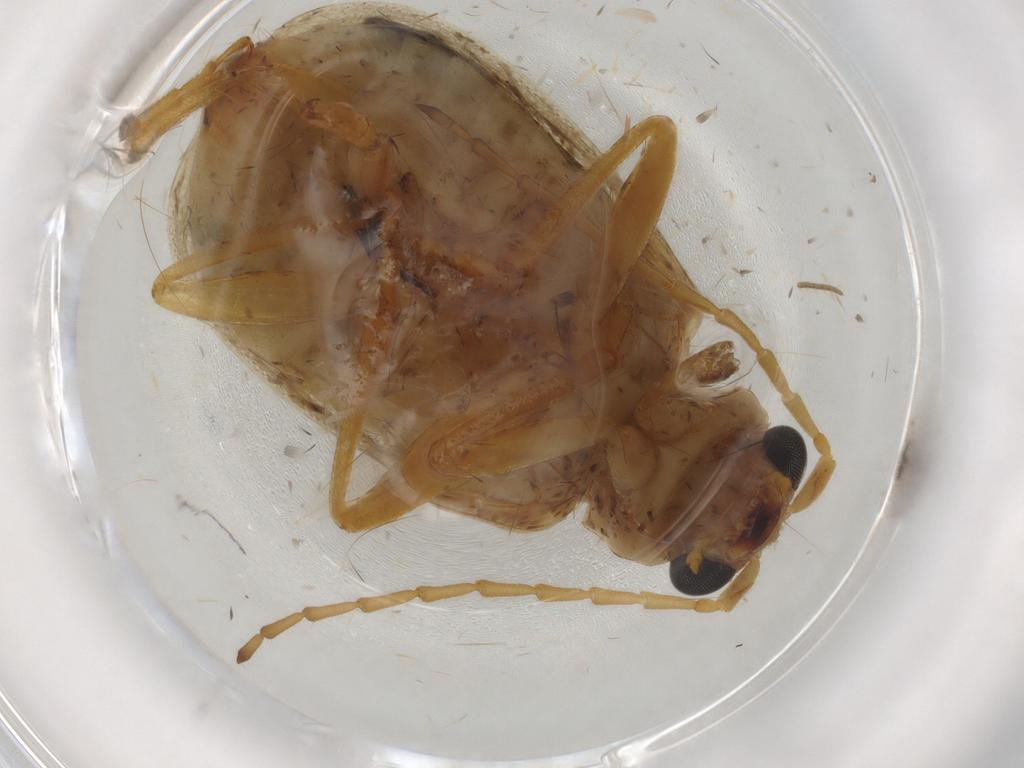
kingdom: Animalia
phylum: Arthropoda
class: Insecta
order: Coleoptera
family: Chrysomelidae
